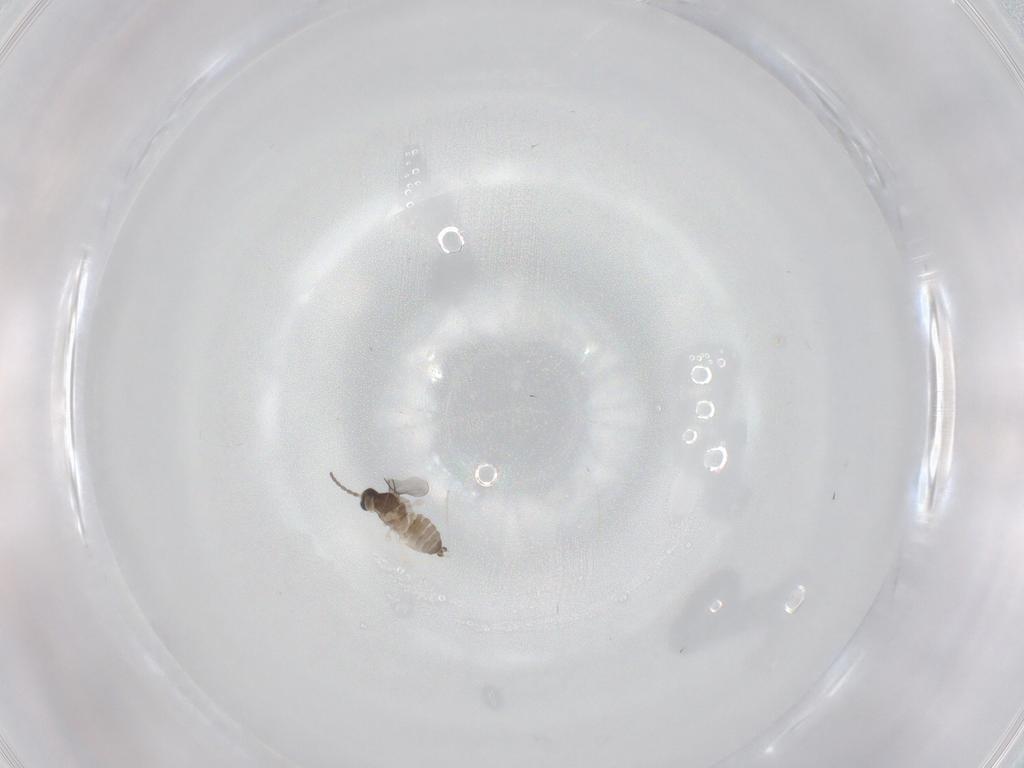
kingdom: Animalia
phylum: Arthropoda
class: Insecta
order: Diptera
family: Cecidomyiidae
